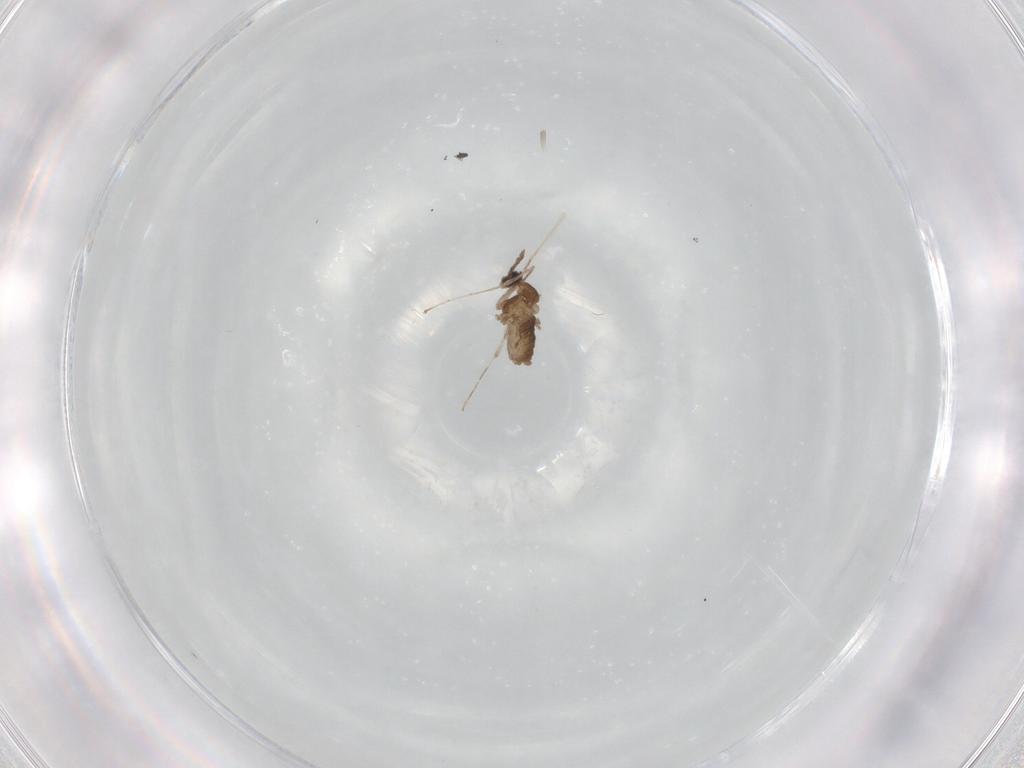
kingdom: Animalia
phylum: Arthropoda
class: Insecta
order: Diptera
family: Cecidomyiidae
